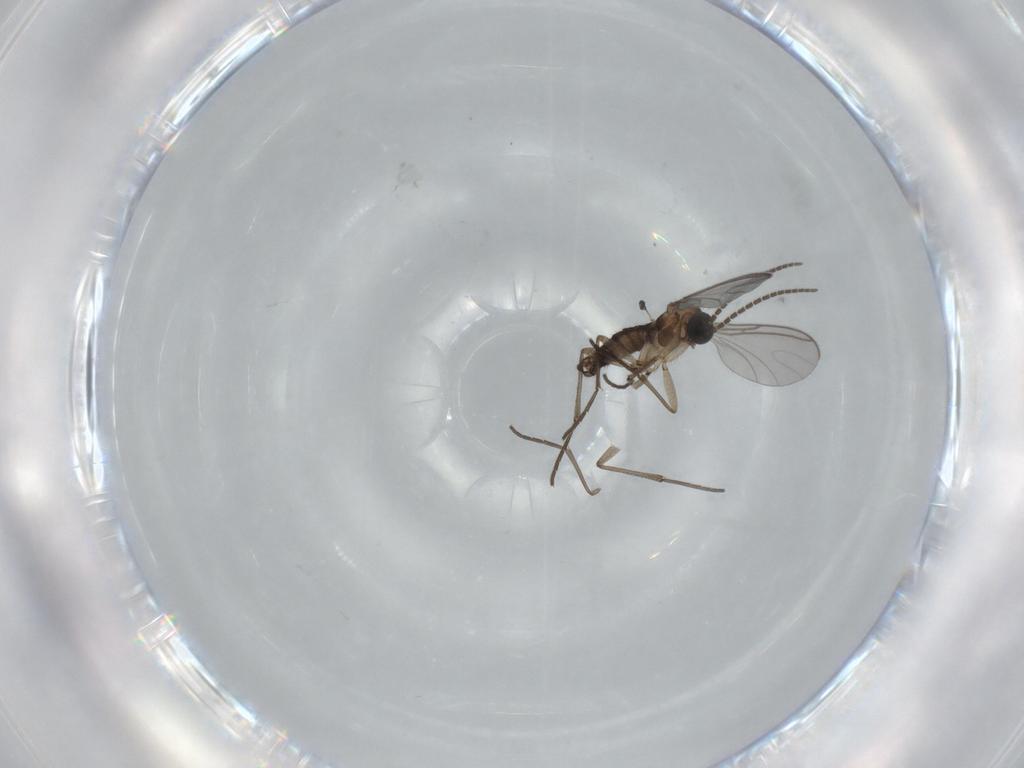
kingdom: Animalia
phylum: Arthropoda
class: Insecta
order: Diptera
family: Sciaridae
